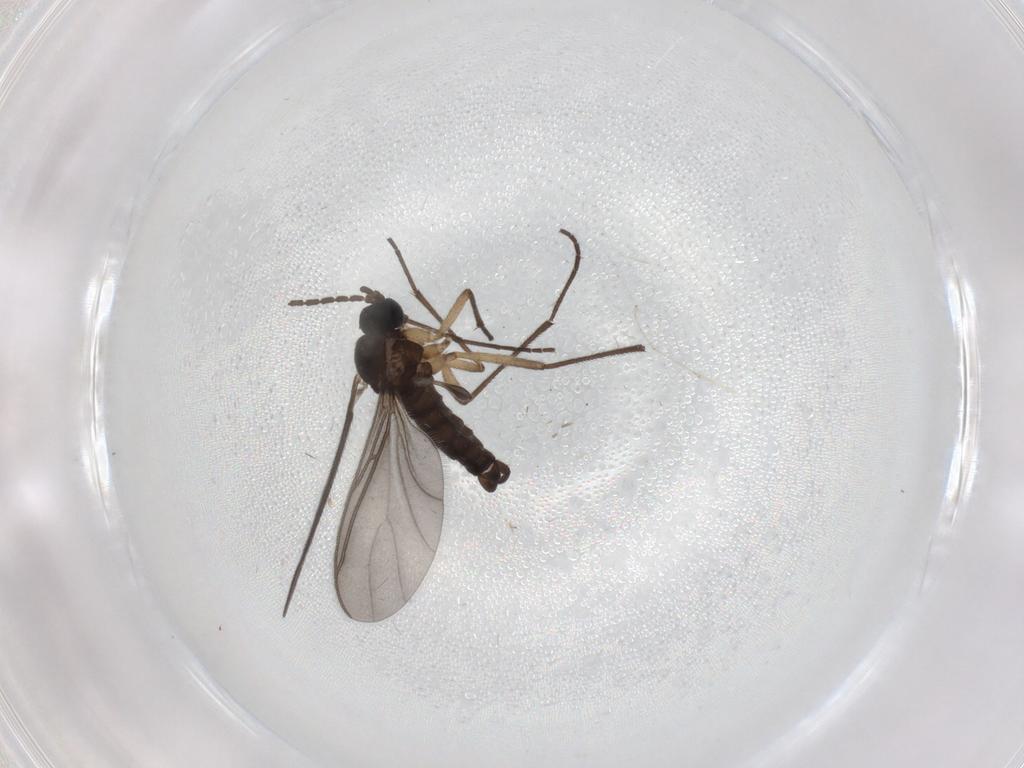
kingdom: Animalia
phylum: Arthropoda
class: Insecta
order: Diptera
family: Sciaridae
